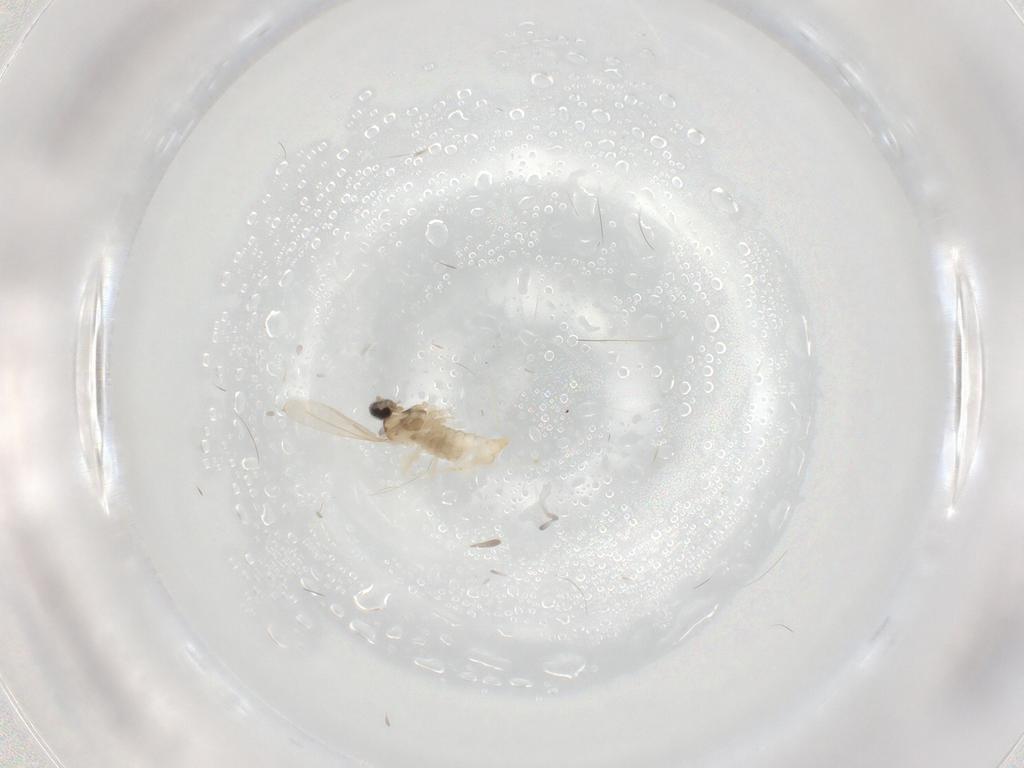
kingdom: Animalia
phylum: Arthropoda
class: Insecta
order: Diptera
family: Cecidomyiidae
